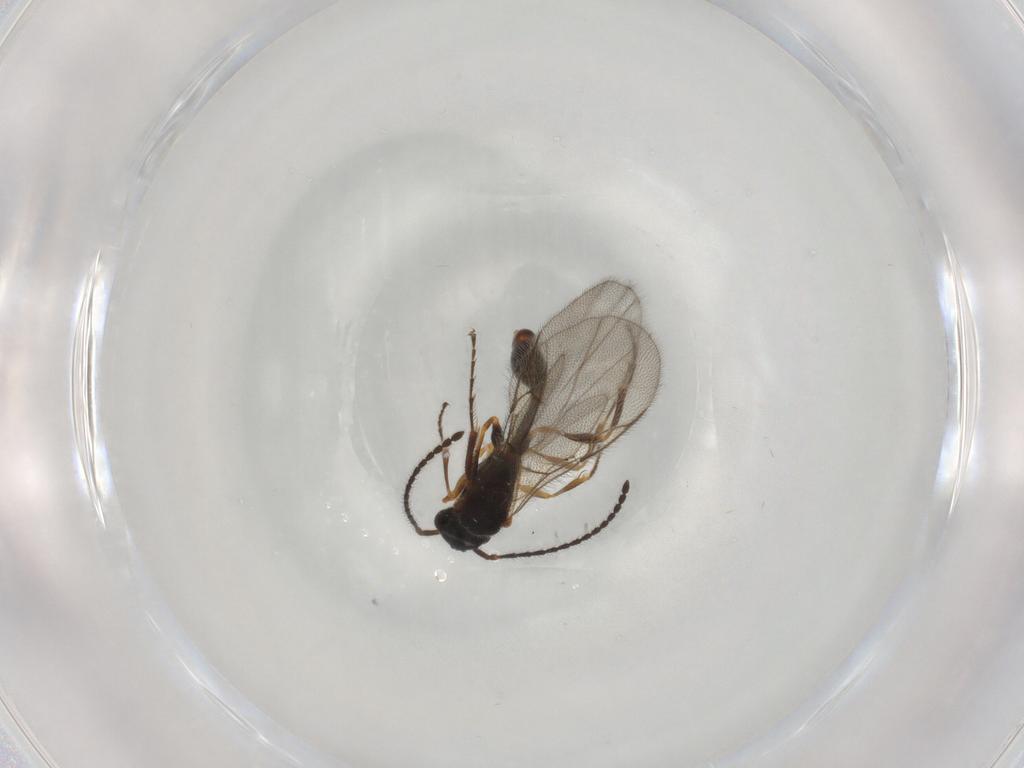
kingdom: Animalia
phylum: Arthropoda
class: Insecta
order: Hymenoptera
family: Diapriidae
